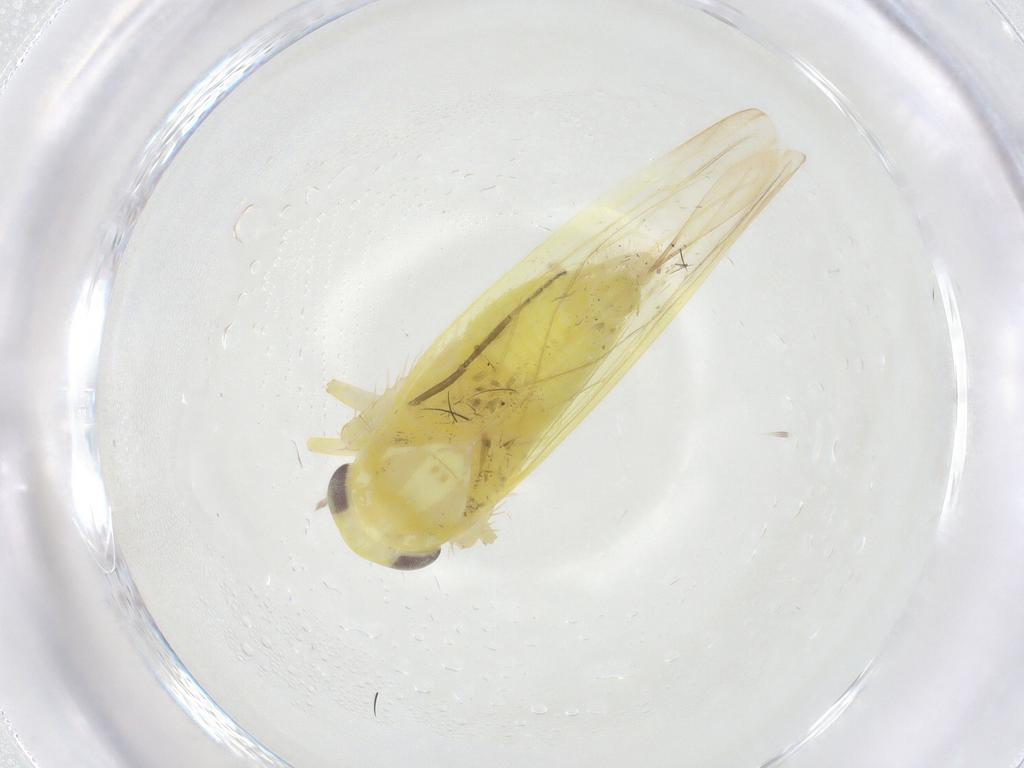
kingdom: Animalia
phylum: Arthropoda
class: Insecta
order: Hemiptera
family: Cicadellidae
